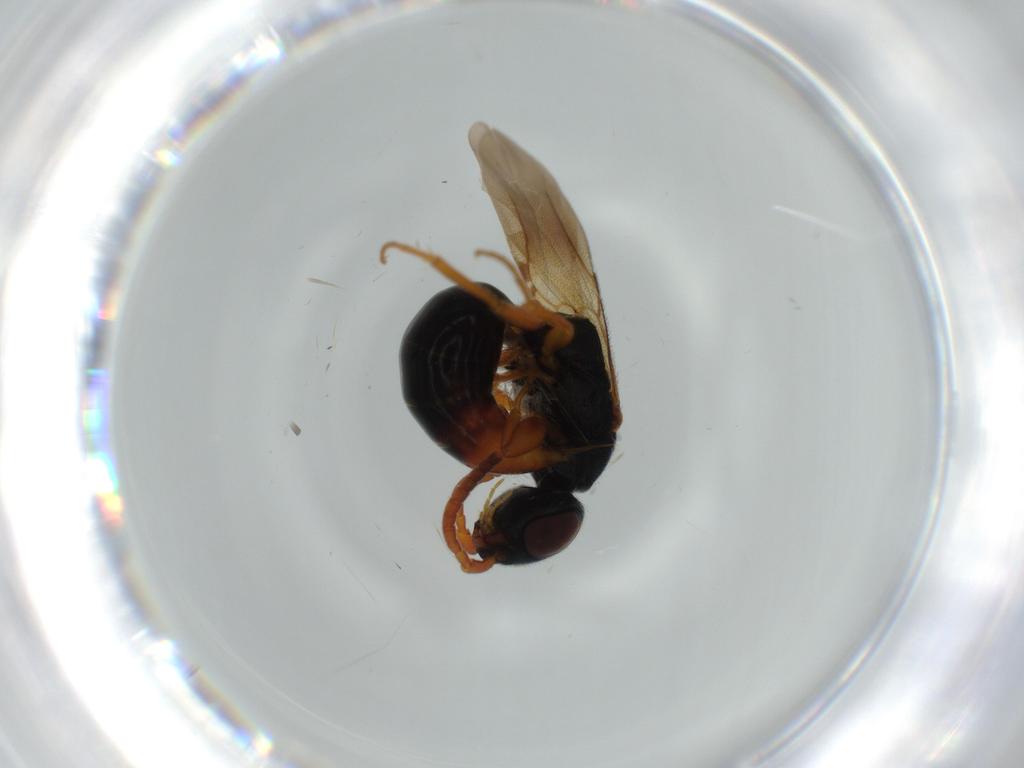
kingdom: Animalia
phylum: Arthropoda
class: Insecta
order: Hymenoptera
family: Bethylidae
